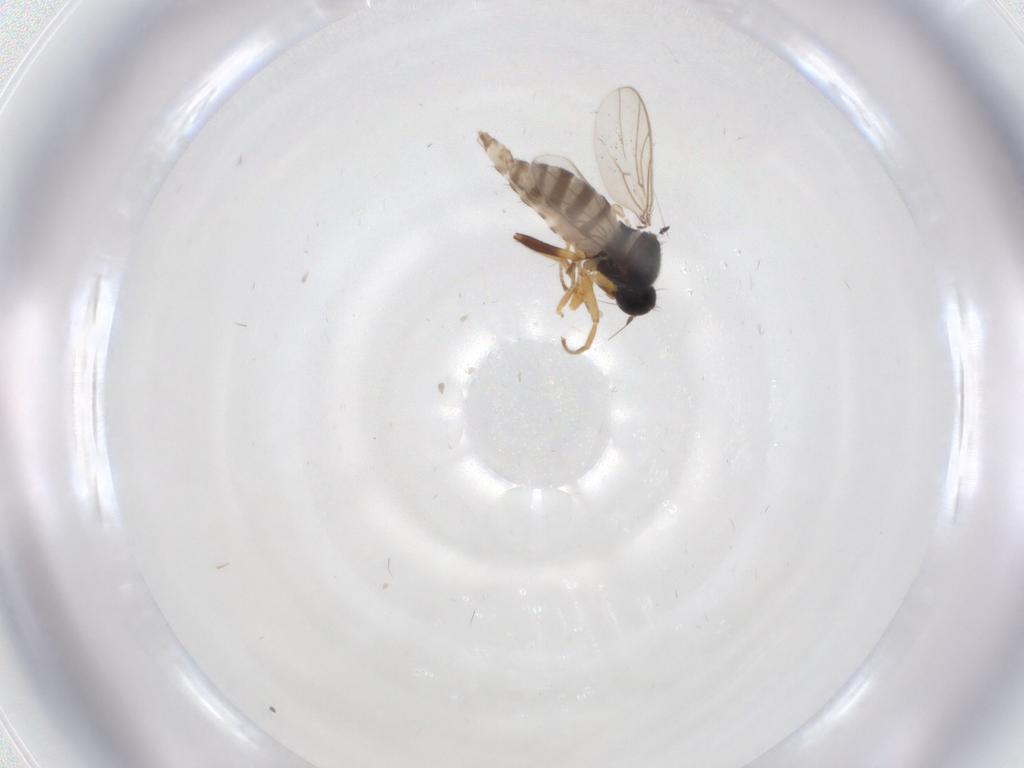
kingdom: Animalia
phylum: Arthropoda
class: Insecta
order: Diptera
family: Hybotidae
